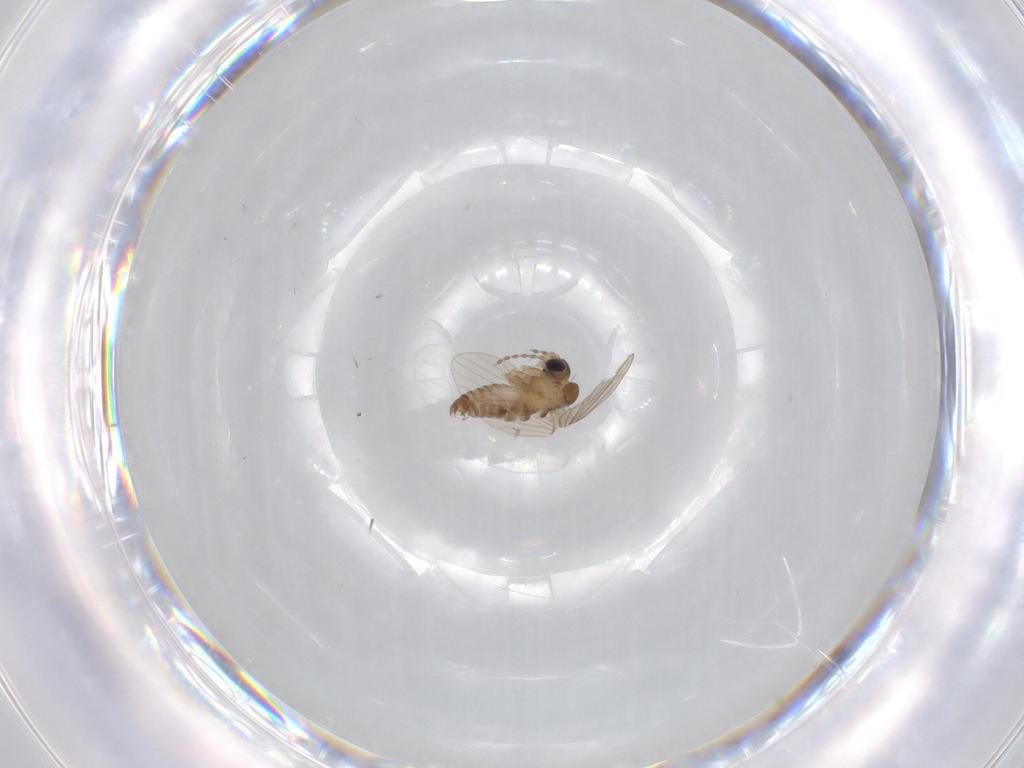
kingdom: Animalia
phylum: Arthropoda
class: Insecta
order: Diptera
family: Psychodidae
